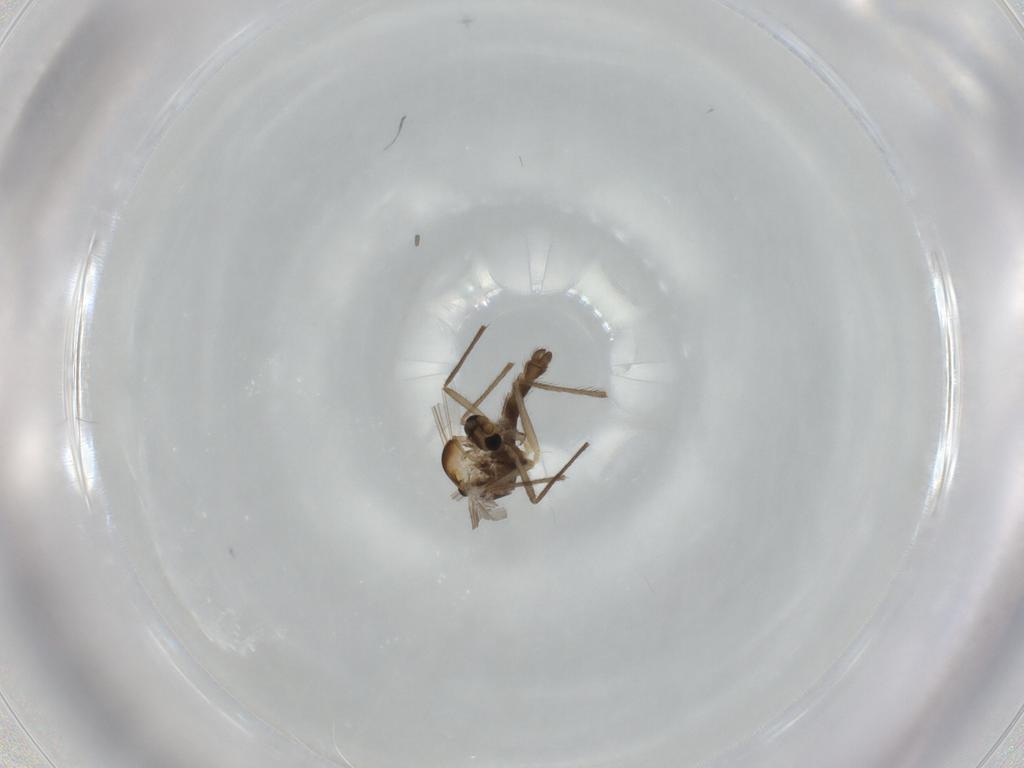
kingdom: Animalia
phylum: Arthropoda
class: Insecta
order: Diptera
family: Chironomidae
